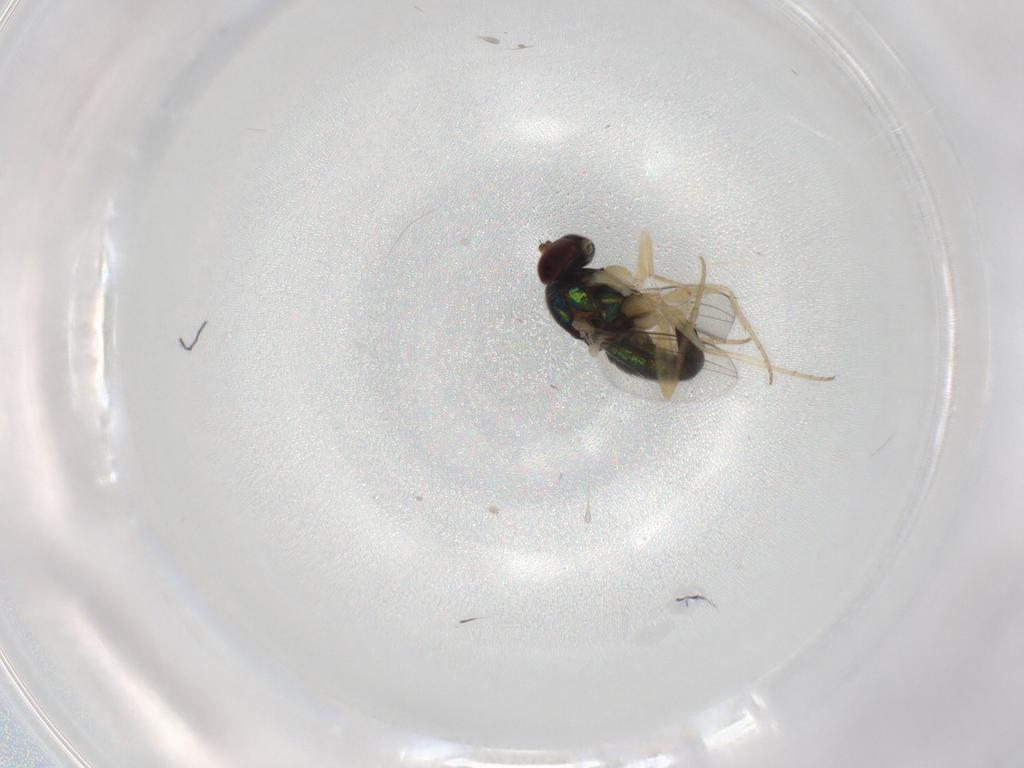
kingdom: Animalia
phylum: Arthropoda
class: Insecta
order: Diptera
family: Dolichopodidae
